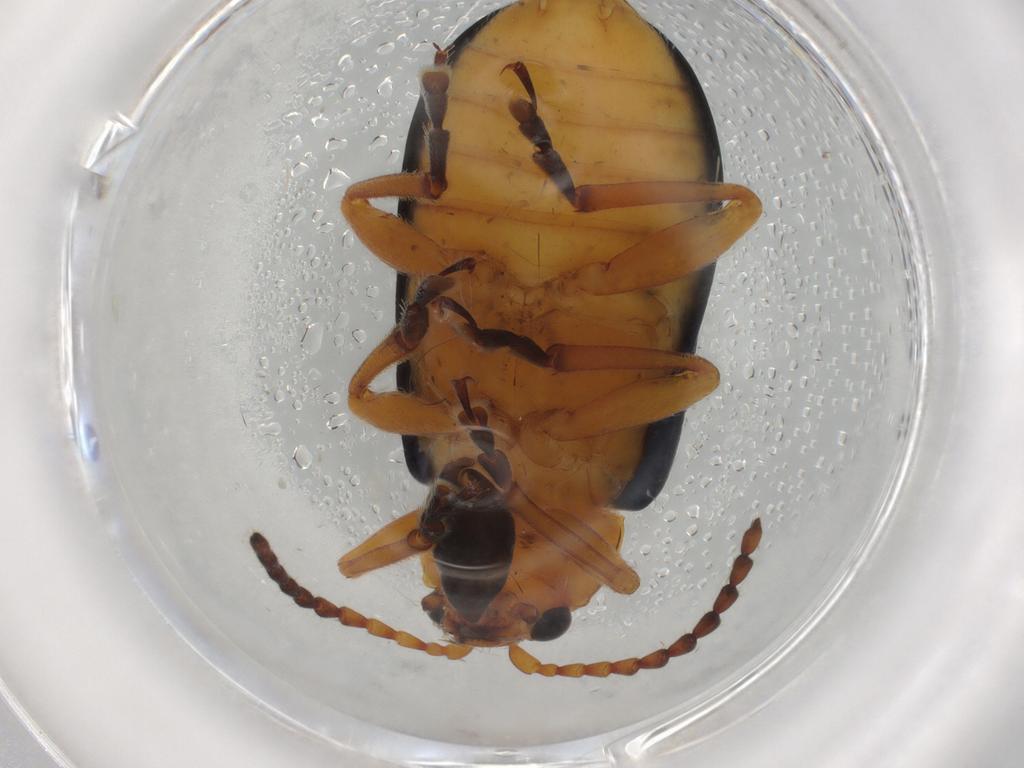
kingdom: Animalia
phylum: Arthropoda
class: Insecta
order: Coleoptera
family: Chrysomelidae
